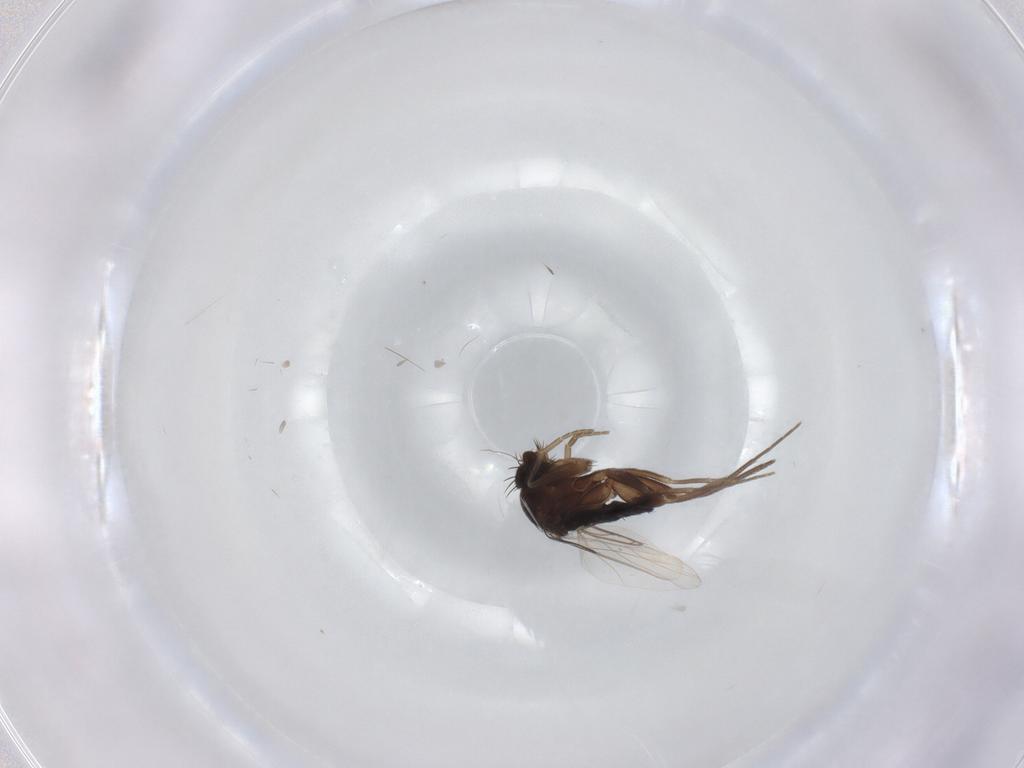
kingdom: Animalia
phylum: Arthropoda
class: Insecta
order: Diptera
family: Phoridae
